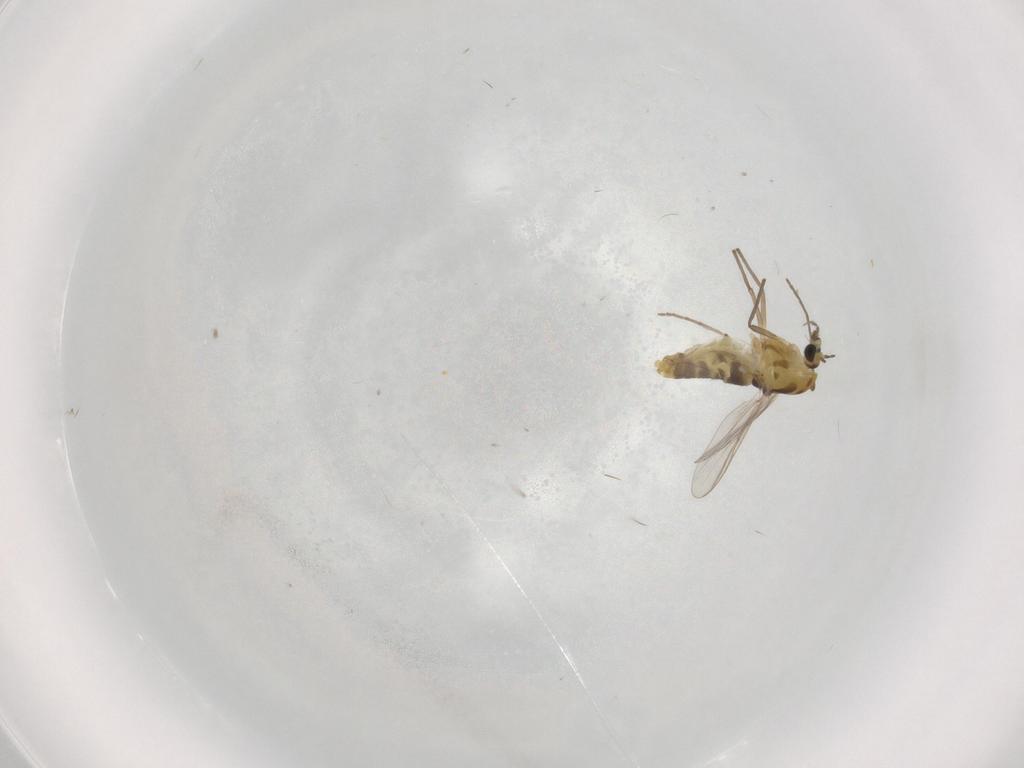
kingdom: Animalia
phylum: Arthropoda
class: Insecta
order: Diptera
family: Chironomidae
